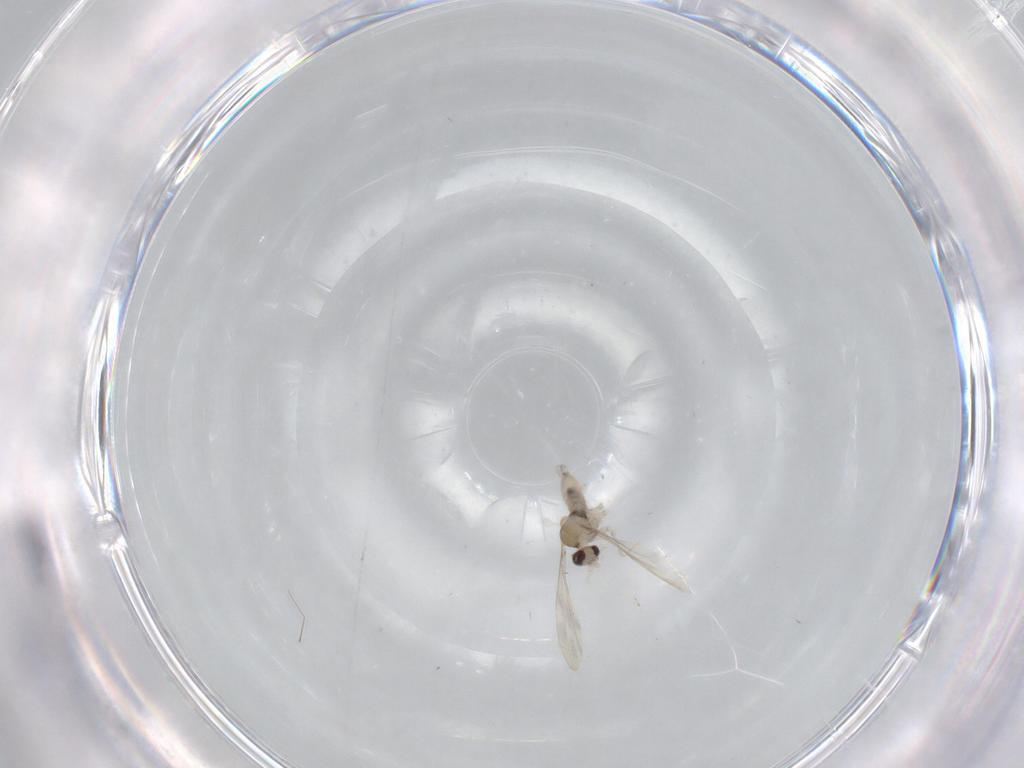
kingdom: Animalia
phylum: Arthropoda
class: Insecta
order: Diptera
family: Cecidomyiidae
